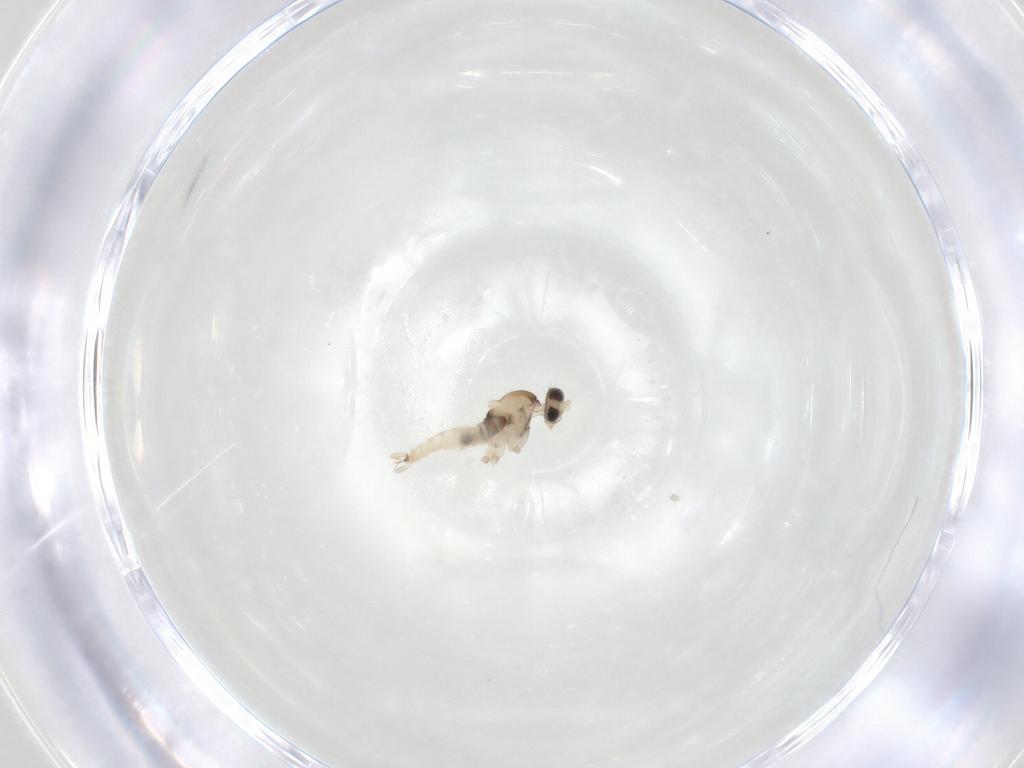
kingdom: Animalia
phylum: Arthropoda
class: Insecta
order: Diptera
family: Cecidomyiidae
